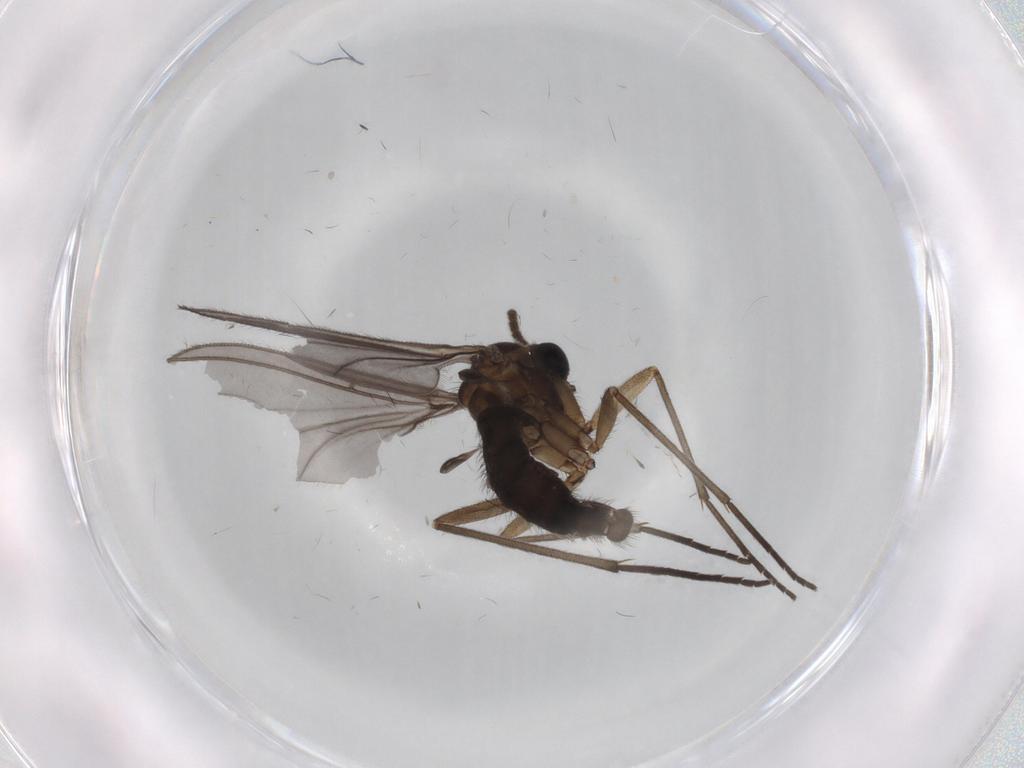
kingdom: Animalia
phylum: Arthropoda
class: Insecta
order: Diptera
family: Sciaridae
